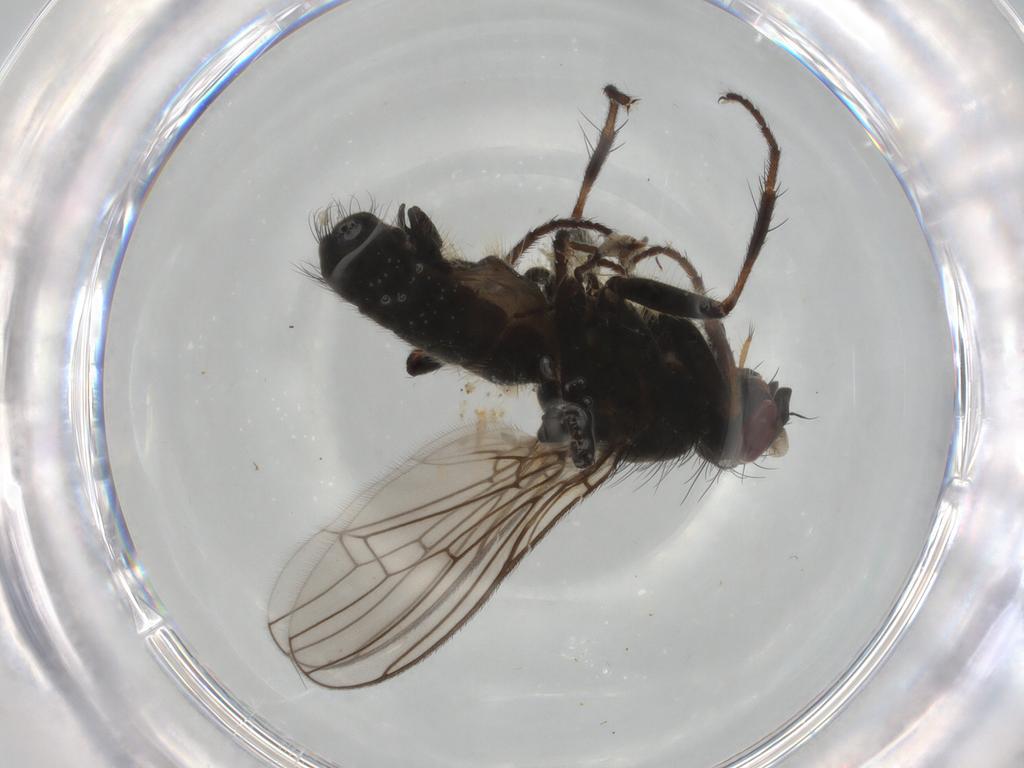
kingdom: Animalia
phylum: Arthropoda
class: Insecta
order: Diptera
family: Scathophagidae
